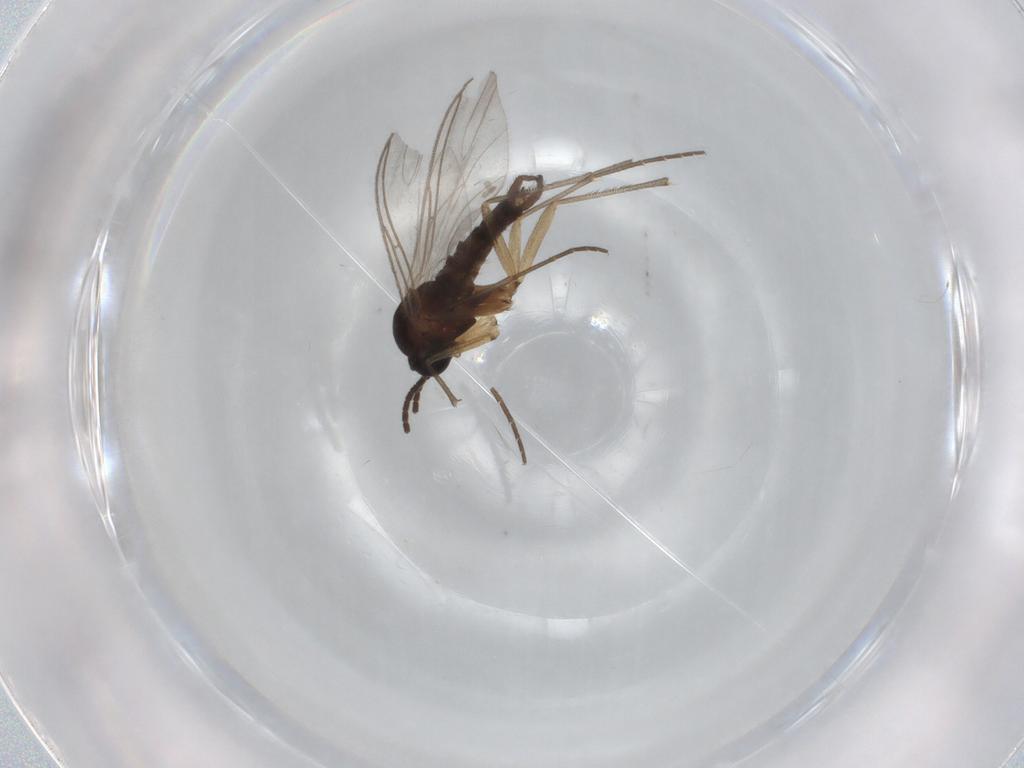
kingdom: Animalia
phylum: Arthropoda
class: Insecta
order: Diptera
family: Sciaridae
